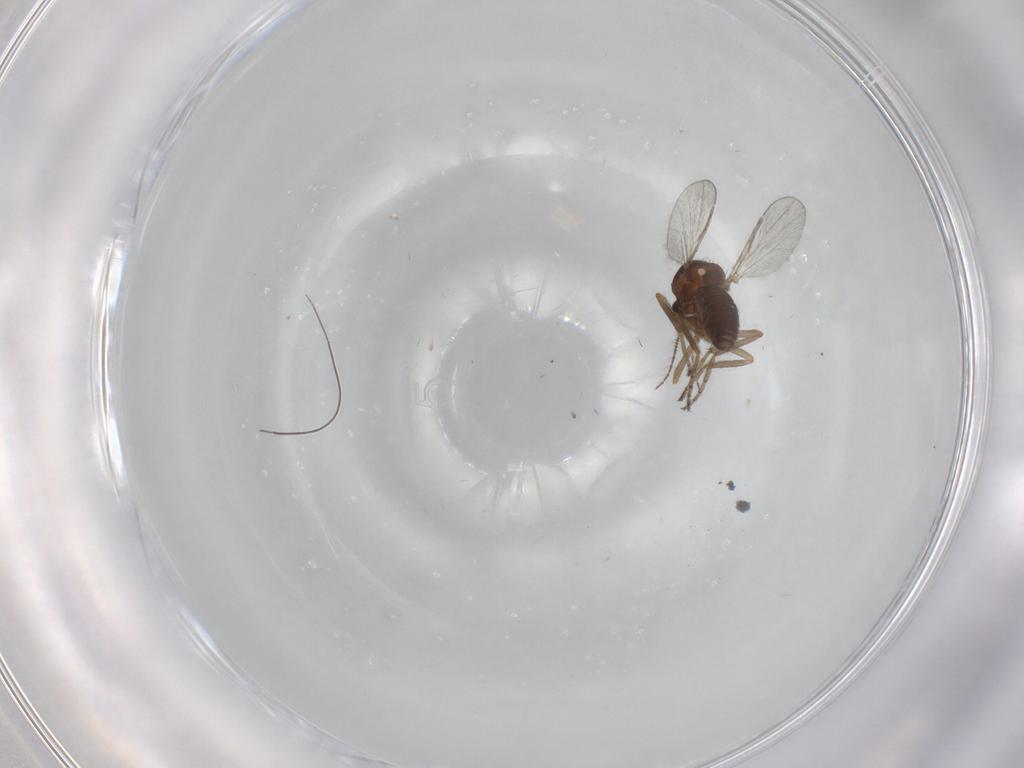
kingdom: Animalia
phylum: Arthropoda
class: Insecta
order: Diptera
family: Ceratopogonidae
